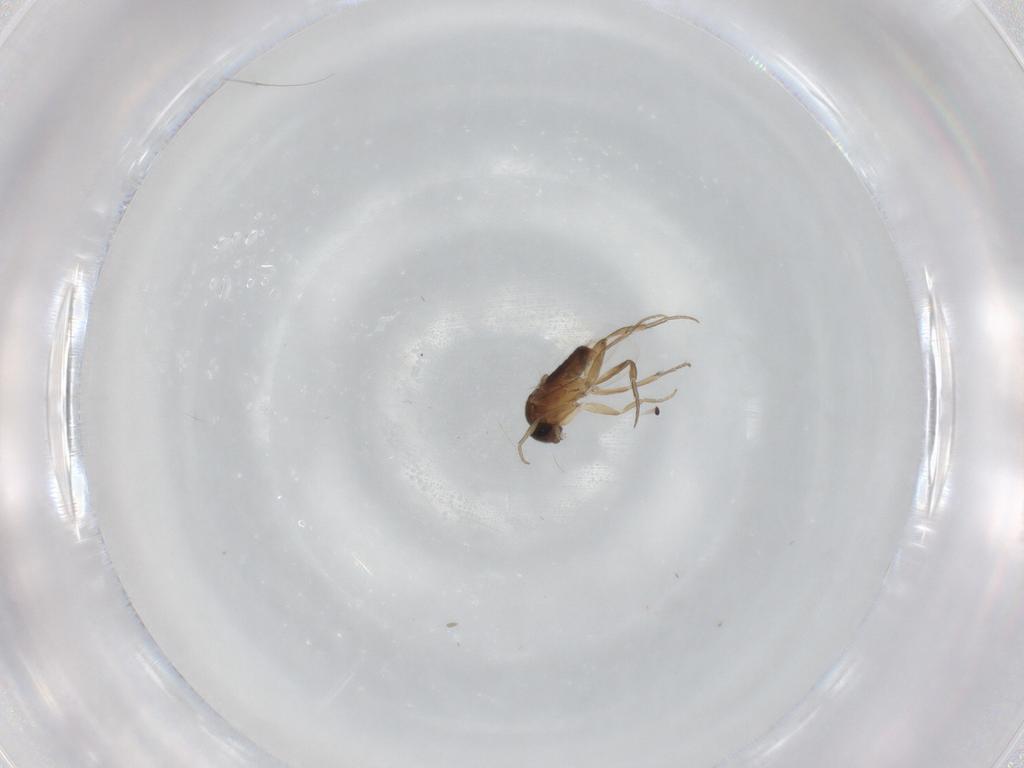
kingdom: Animalia
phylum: Arthropoda
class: Insecta
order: Diptera
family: Phoridae
